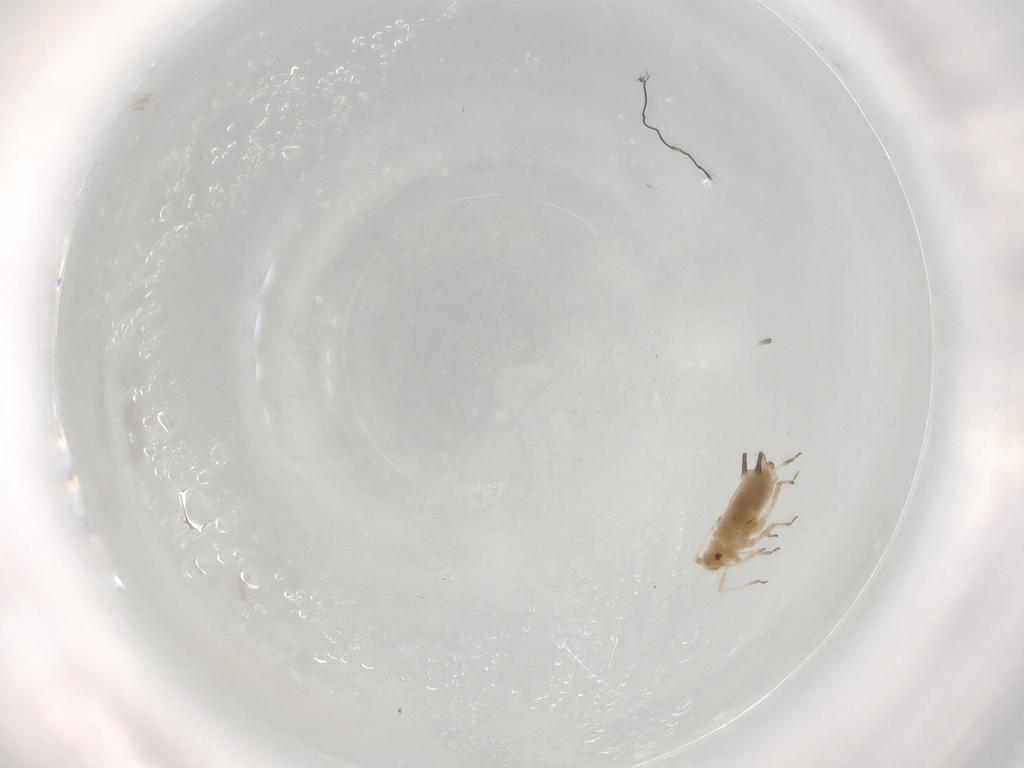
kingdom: Animalia
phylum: Arthropoda
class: Insecta
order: Hemiptera
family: Aphididae
